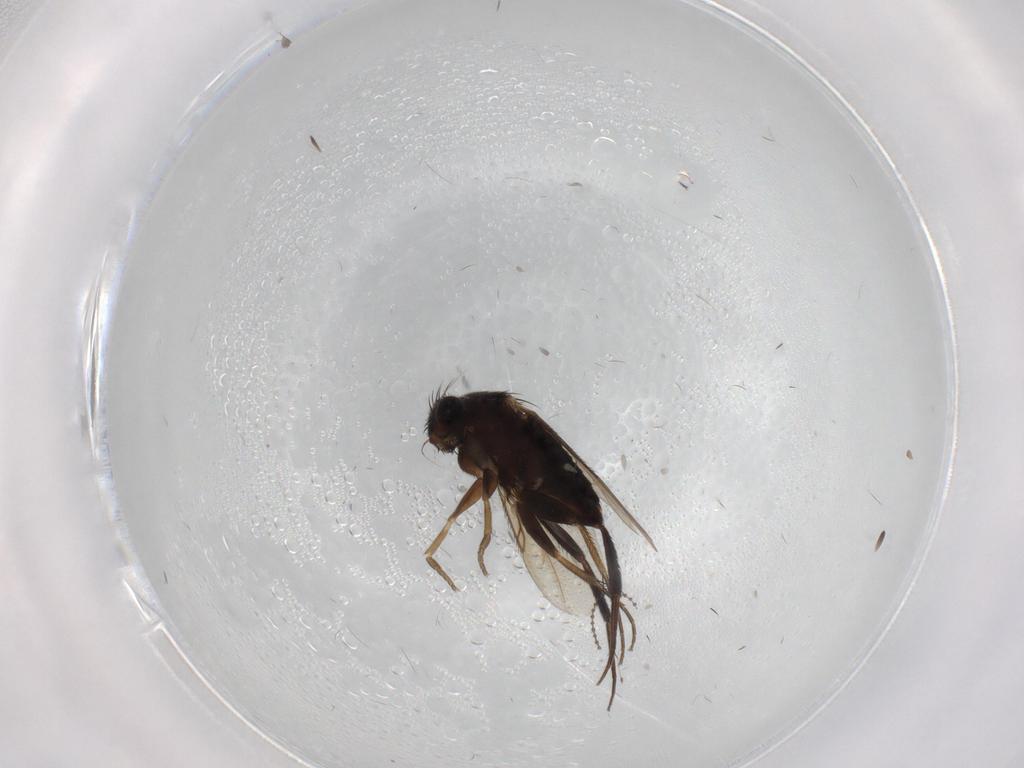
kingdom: Animalia
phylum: Arthropoda
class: Insecta
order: Diptera
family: Phoridae
